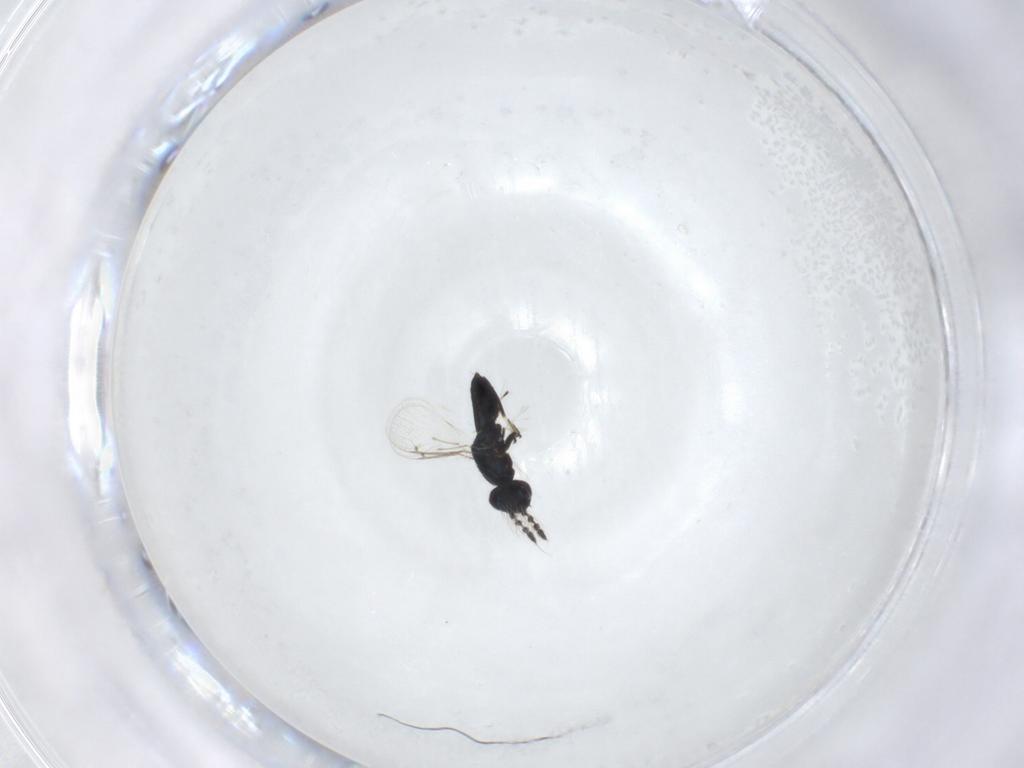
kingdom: Animalia
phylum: Arthropoda
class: Insecta
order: Hymenoptera
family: Eulophidae
